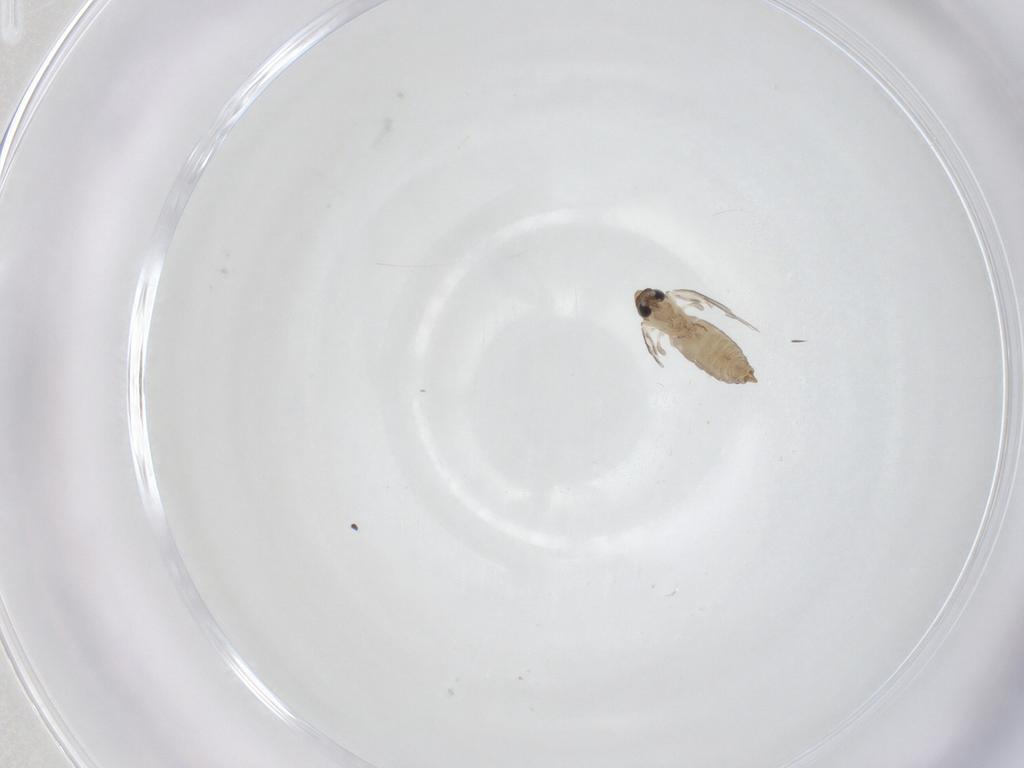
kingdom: Animalia
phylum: Arthropoda
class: Insecta
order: Diptera
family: Psychodidae
